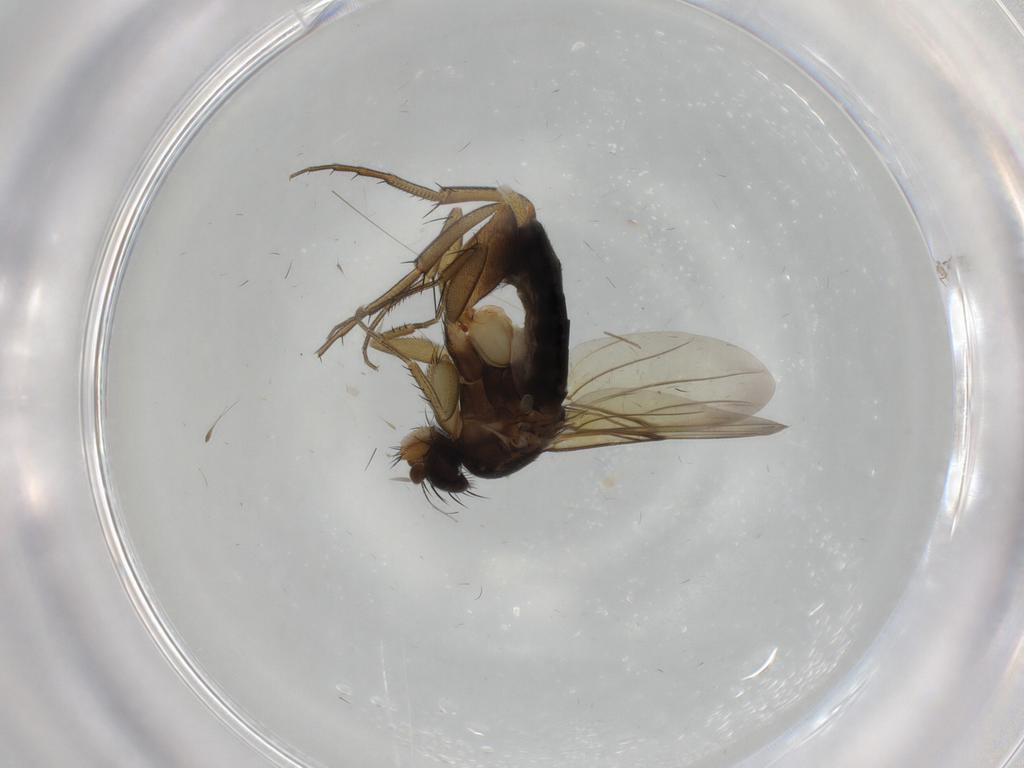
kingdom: Animalia
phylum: Arthropoda
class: Insecta
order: Diptera
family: Phoridae
